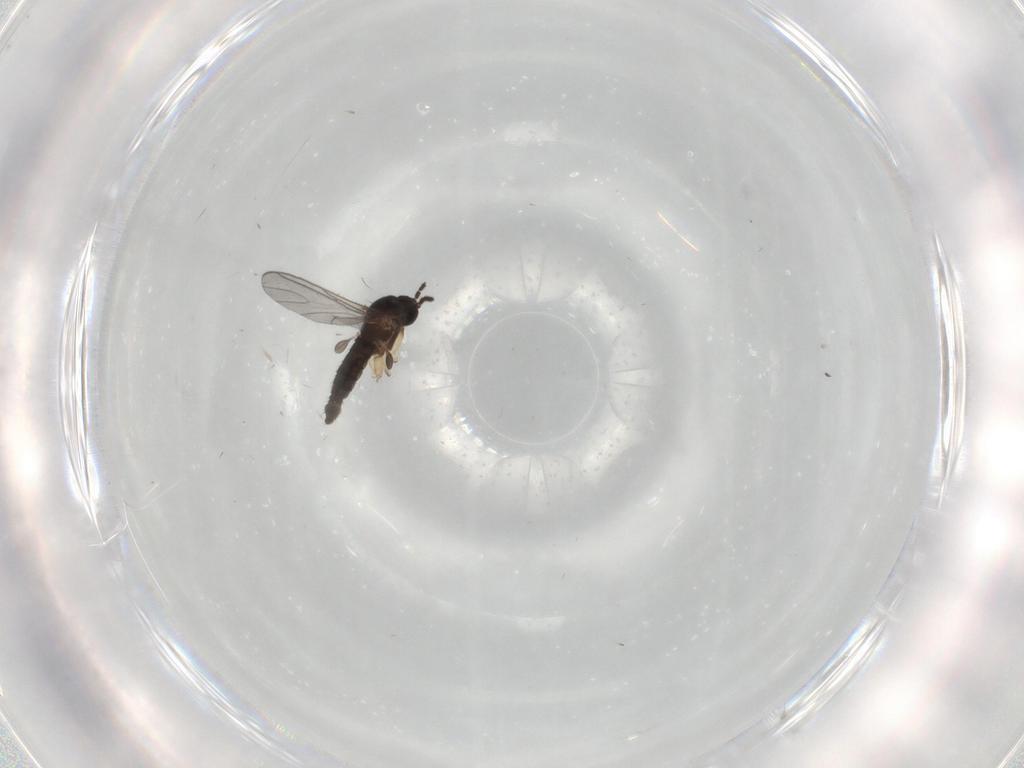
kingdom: Animalia
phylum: Arthropoda
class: Insecta
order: Diptera
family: Sciaridae
